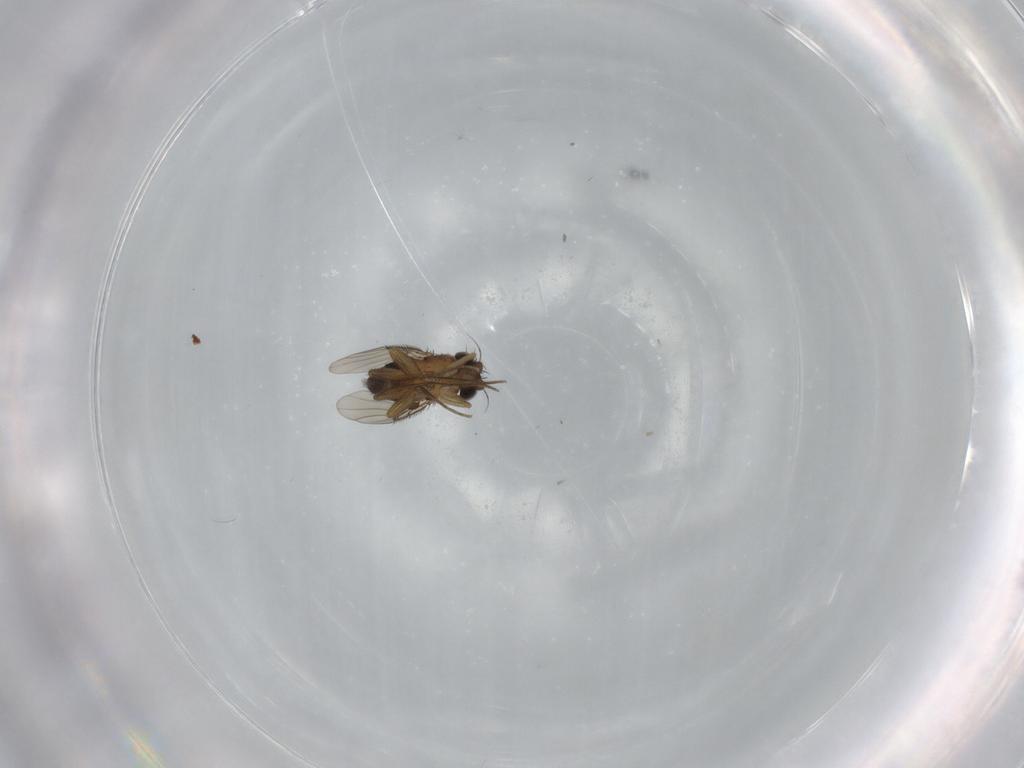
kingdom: Animalia
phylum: Arthropoda
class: Insecta
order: Diptera
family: Phoridae
